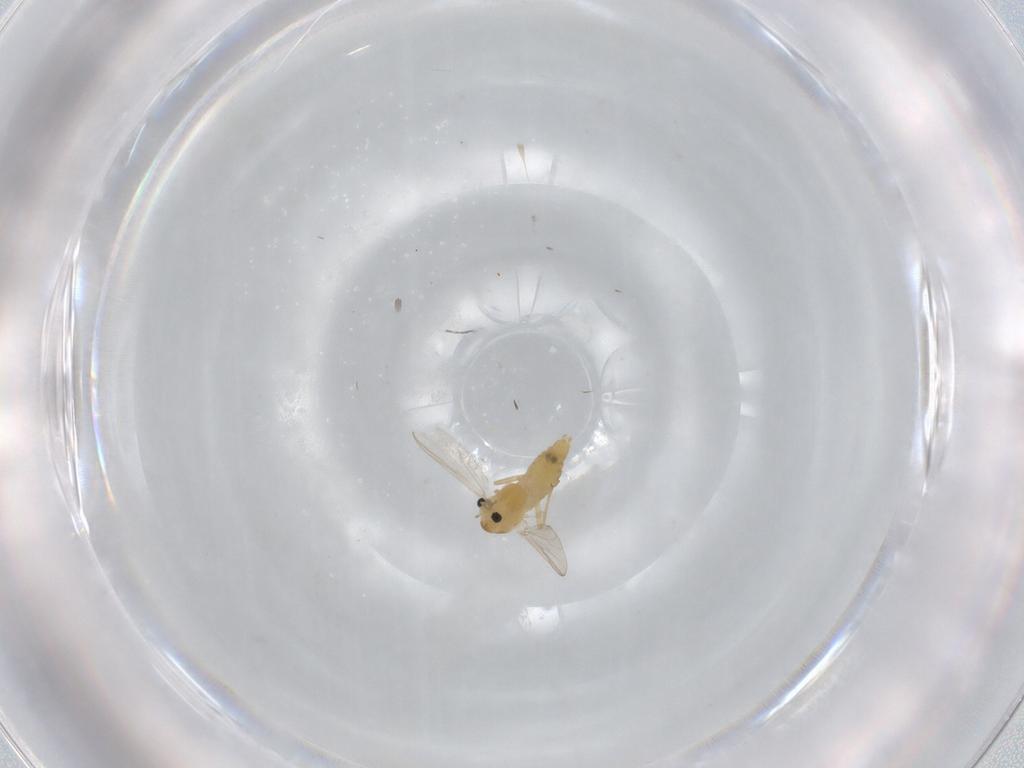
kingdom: Animalia
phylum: Arthropoda
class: Insecta
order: Diptera
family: Chironomidae
